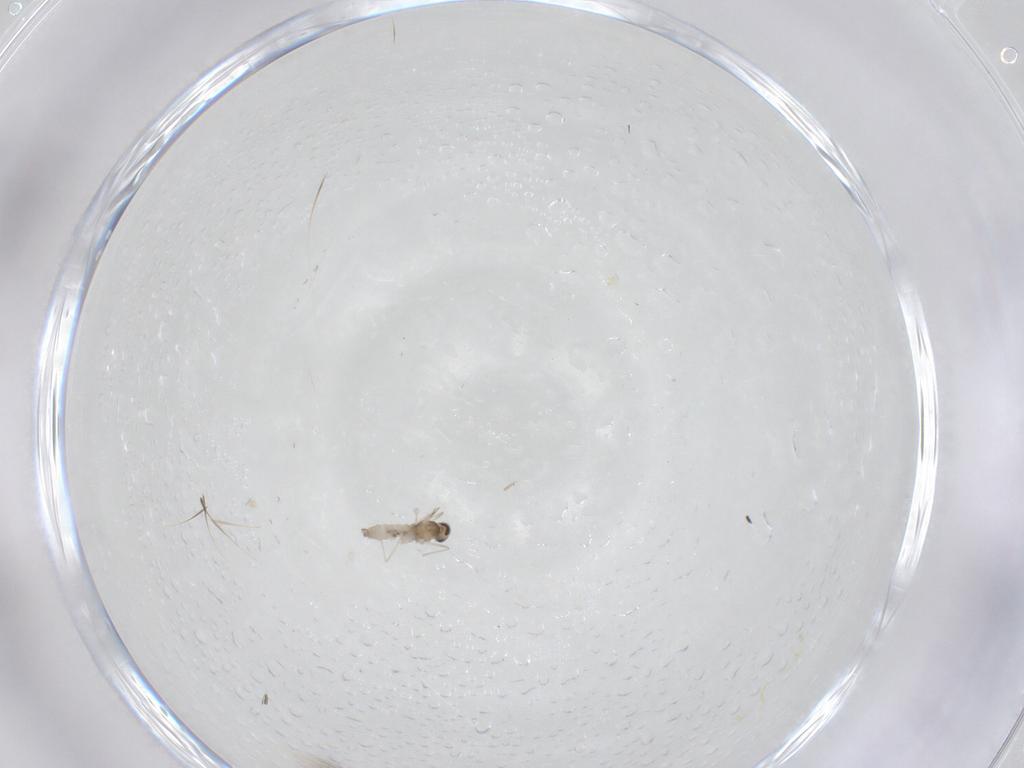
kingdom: Animalia
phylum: Arthropoda
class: Insecta
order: Diptera
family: Cecidomyiidae
